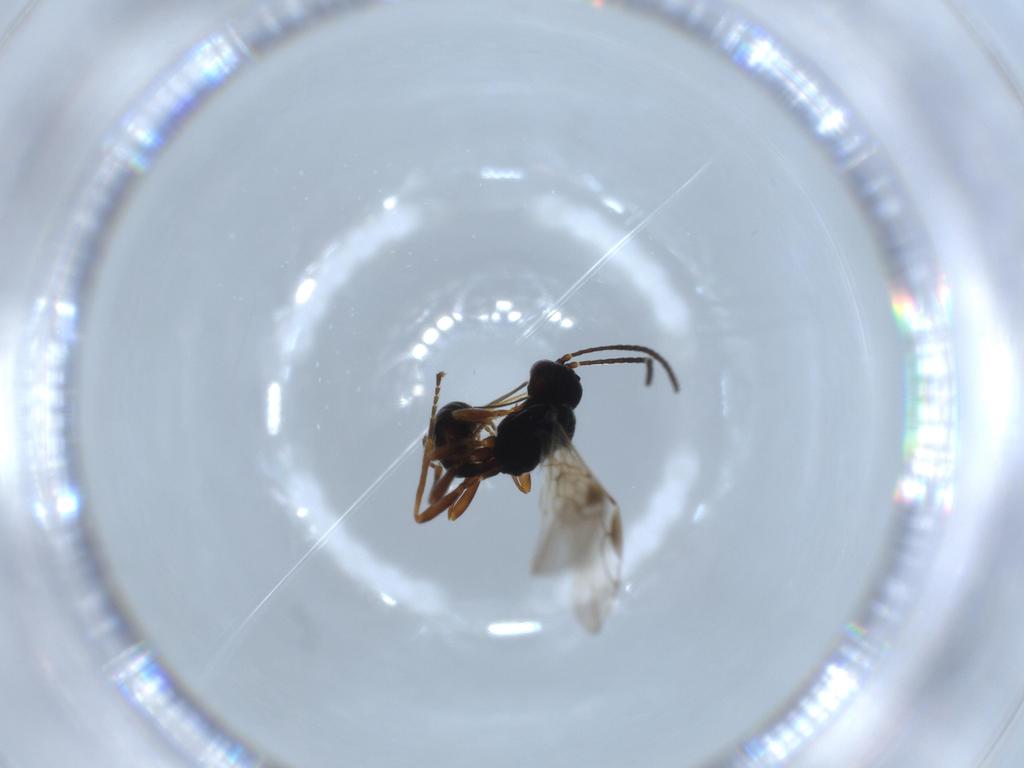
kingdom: Animalia
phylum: Arthropoda
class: Insecta
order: Hymenoptera
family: Braconidae
